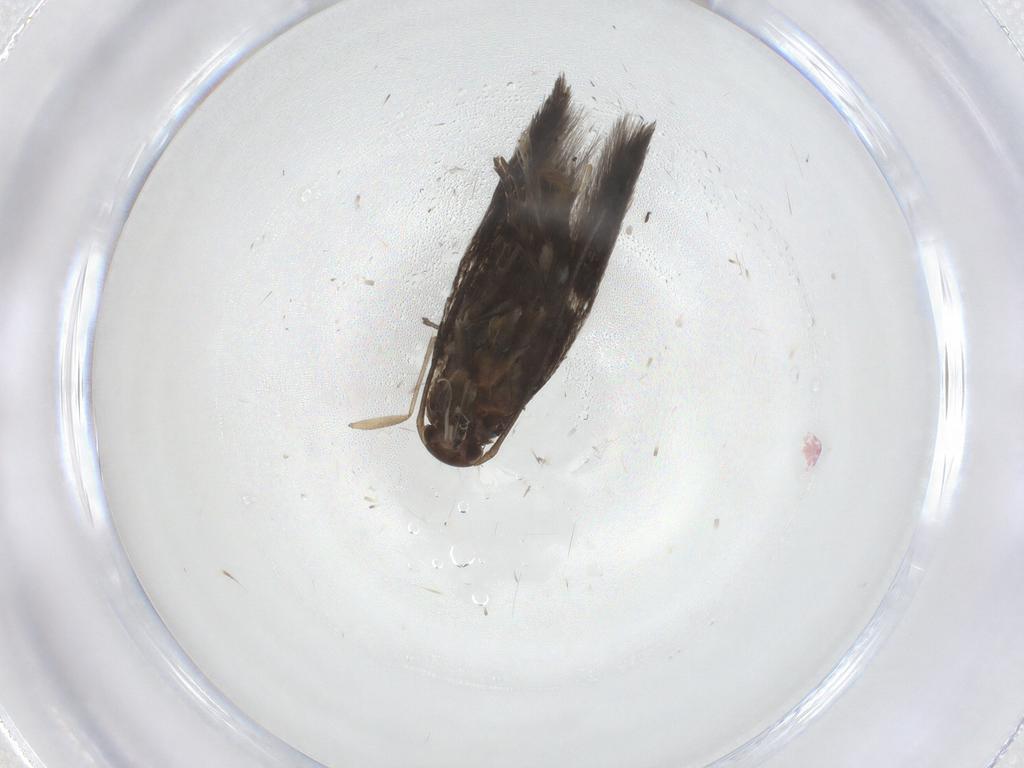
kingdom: Animalia
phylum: Arthropoda
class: Insecta
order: Lepidoptera
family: Elachistidae
